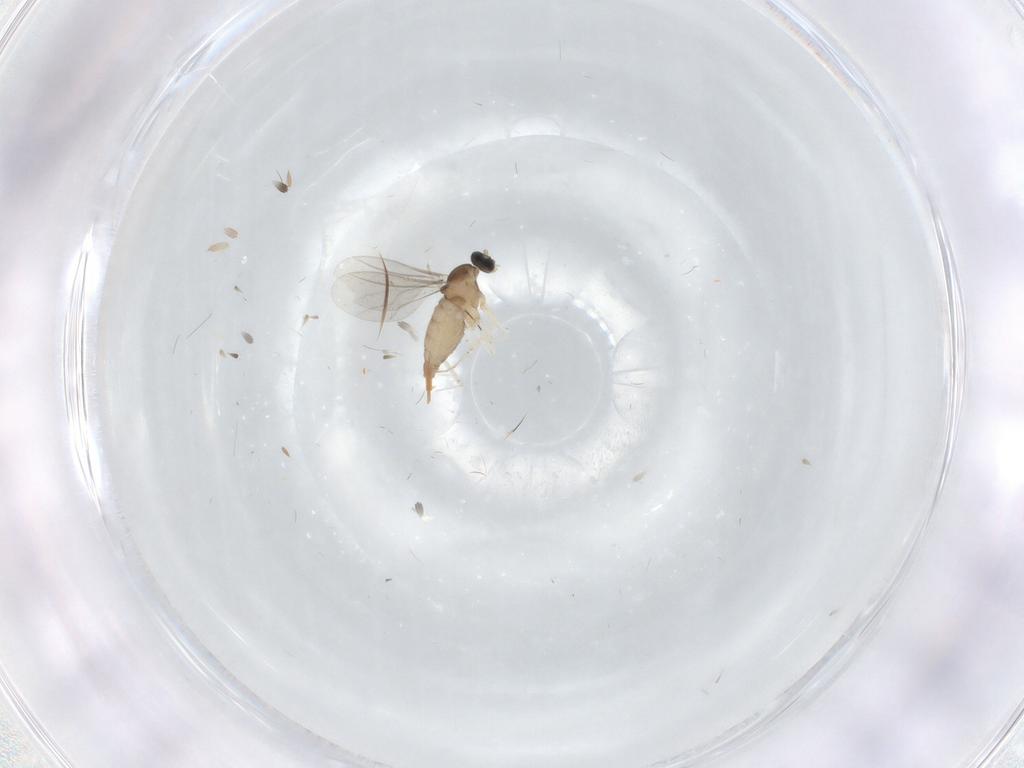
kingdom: Animalia
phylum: Arthropoda
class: Insecta
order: Diptera
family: Cecidomyiidae
